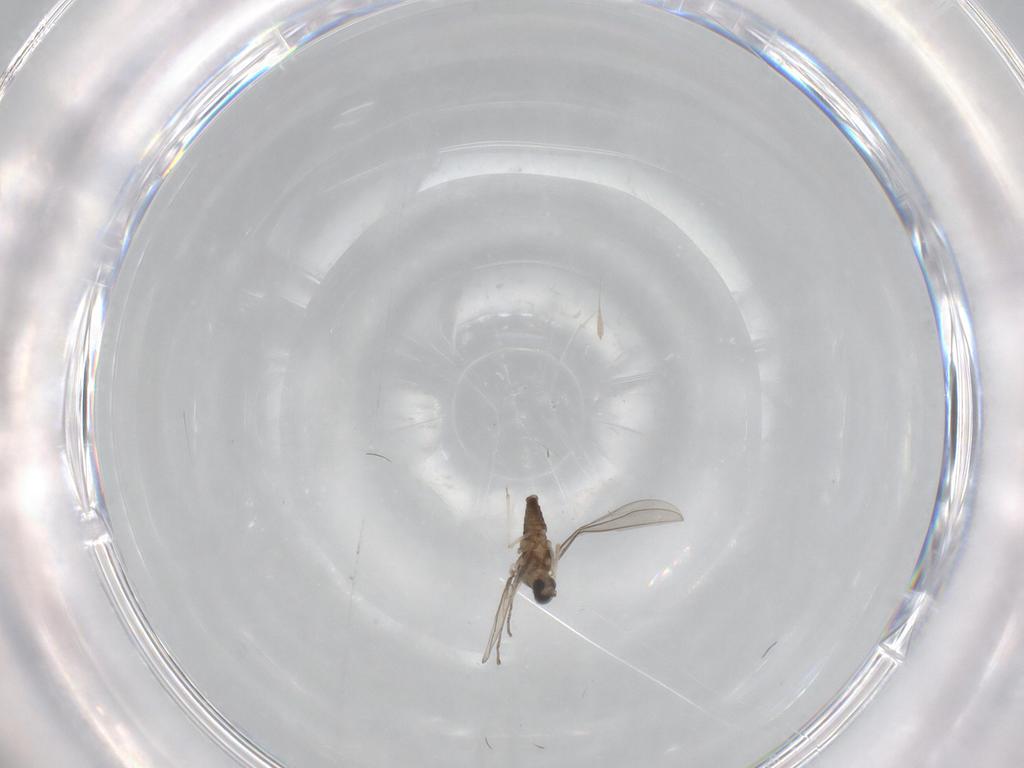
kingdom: Animalia
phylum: Arthropoda
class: Insecta
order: Diptera
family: Cecidomyiidae
